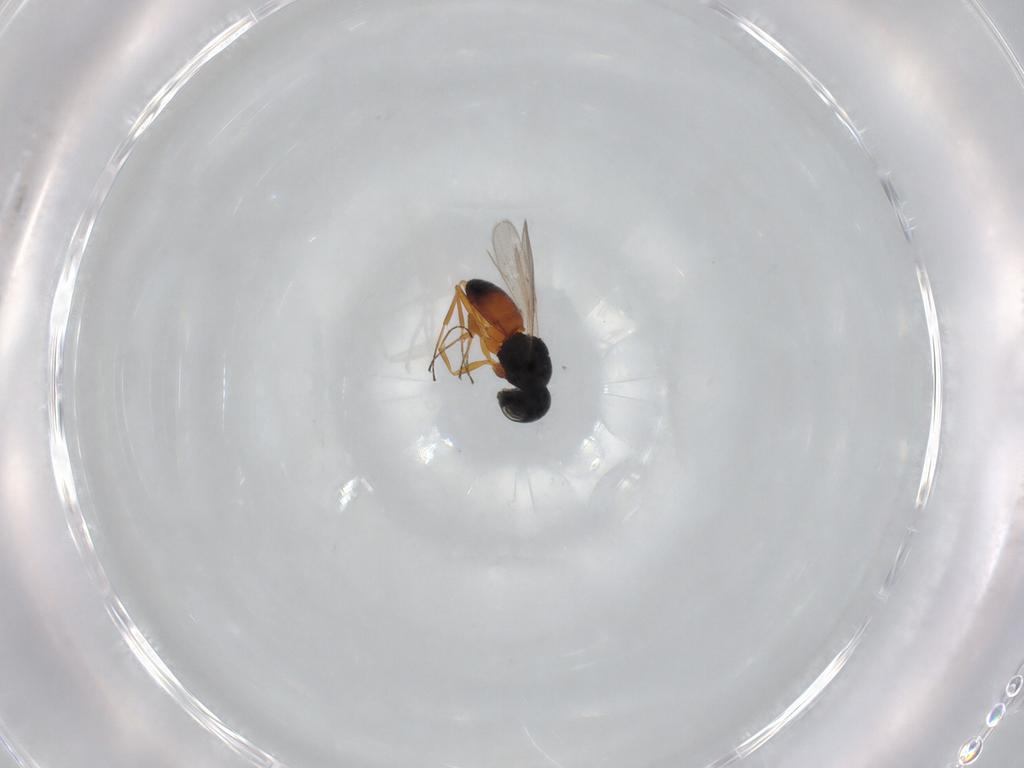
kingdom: Animalia
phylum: Arthropoda
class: Insecta
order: Hymenoptera
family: Scelionidae
